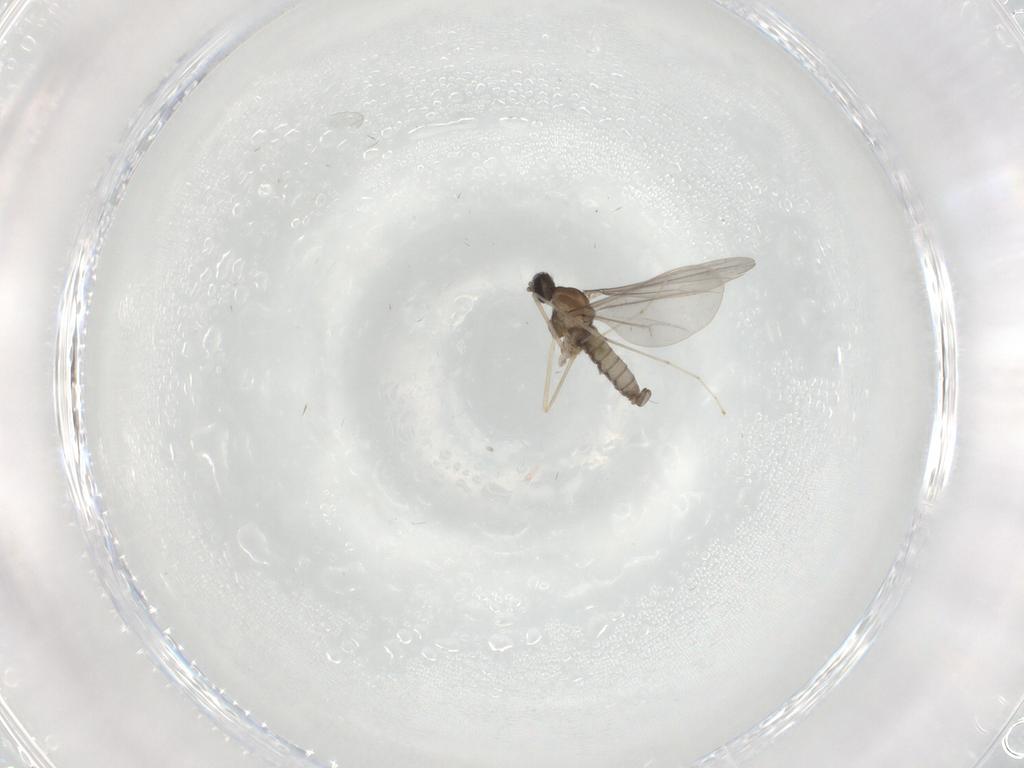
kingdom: Animalia
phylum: Arthropoda
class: Insecta
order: Diptera
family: Cecidomyiidae
